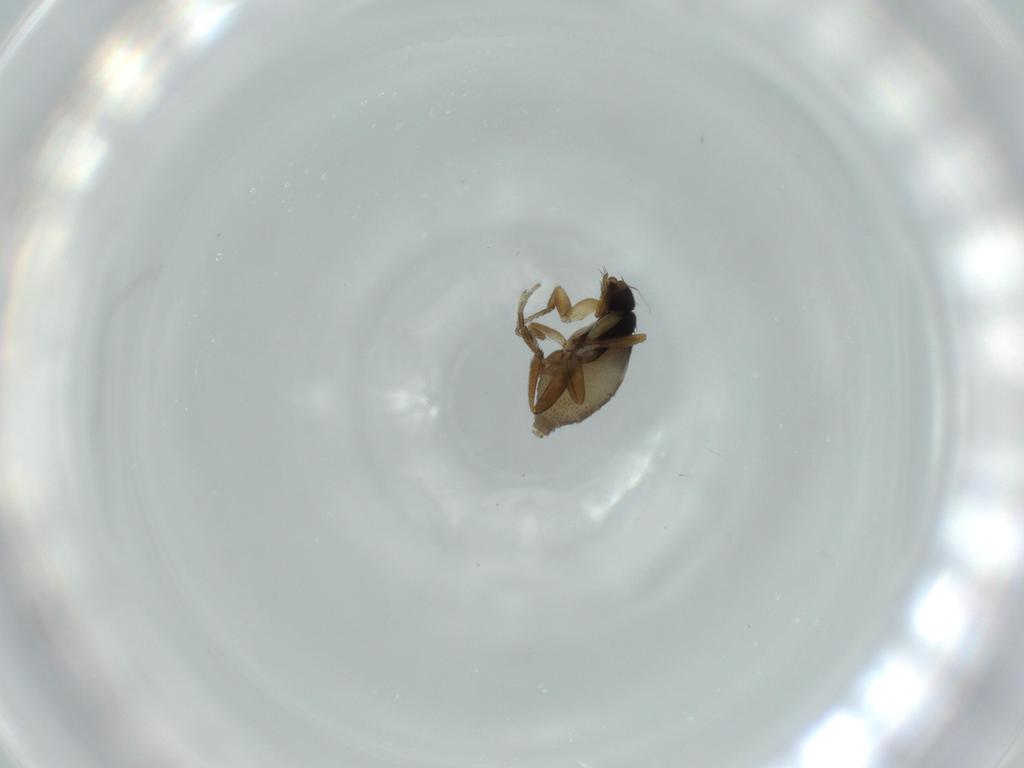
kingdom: Animalia
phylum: Arthropoda
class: Insecta
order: Diptera
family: Phoridae
